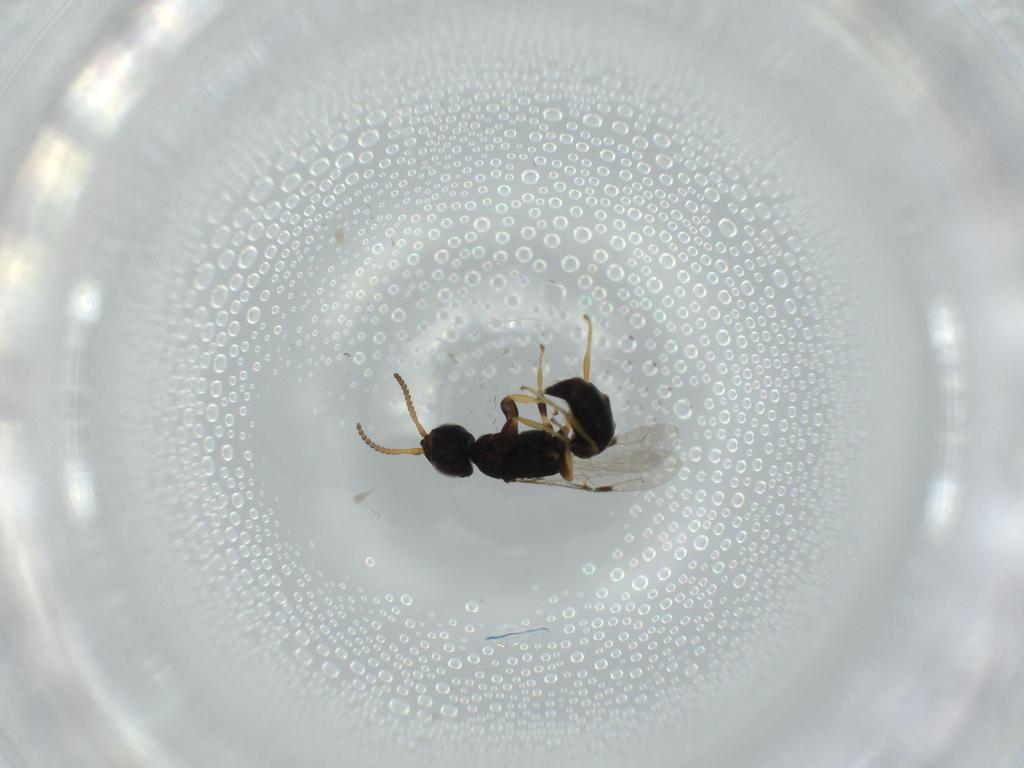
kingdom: Animalia
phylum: Arthropoda
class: Insecta
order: Hymenoptera
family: Bethylidae
